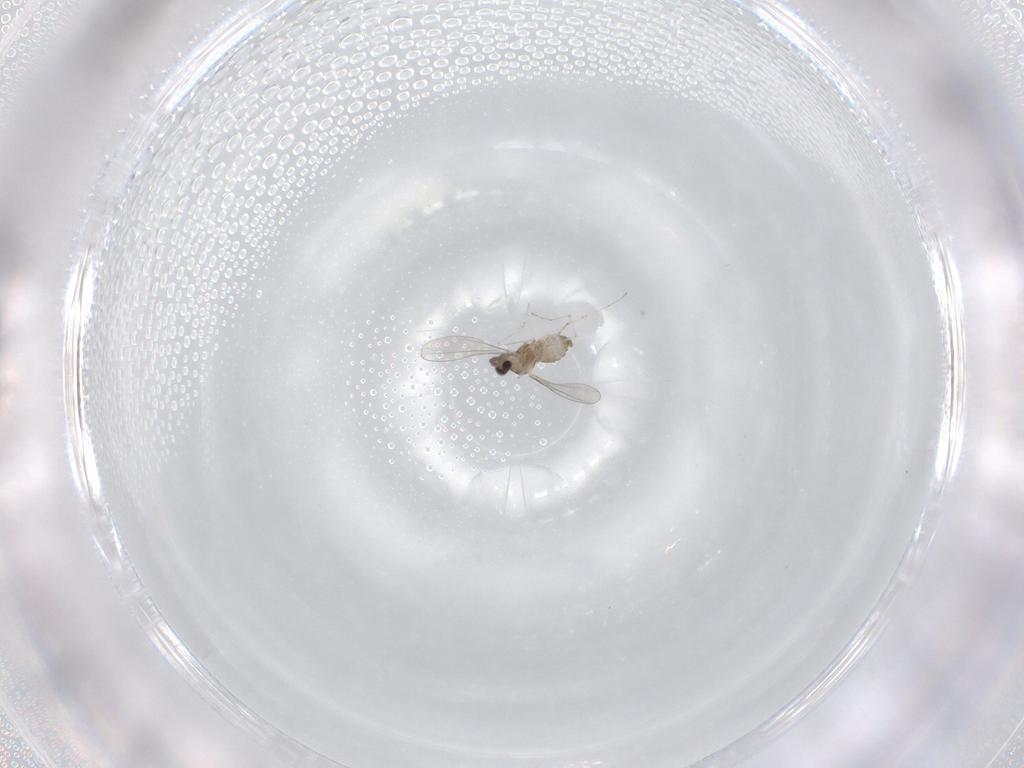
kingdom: Animalia
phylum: Arthropoda
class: Insecta
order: Diptera
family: Cecidomyiidae
